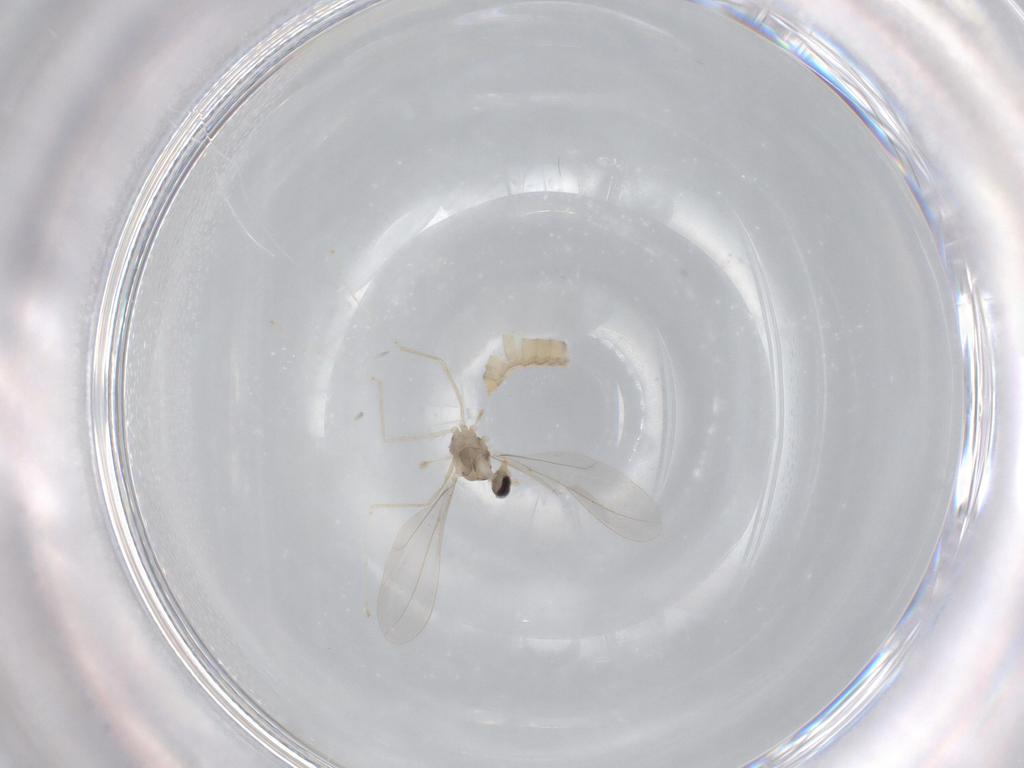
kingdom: Animalia
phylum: Arthropoda
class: Insecta
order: Diptera
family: Cecidomyiidae
